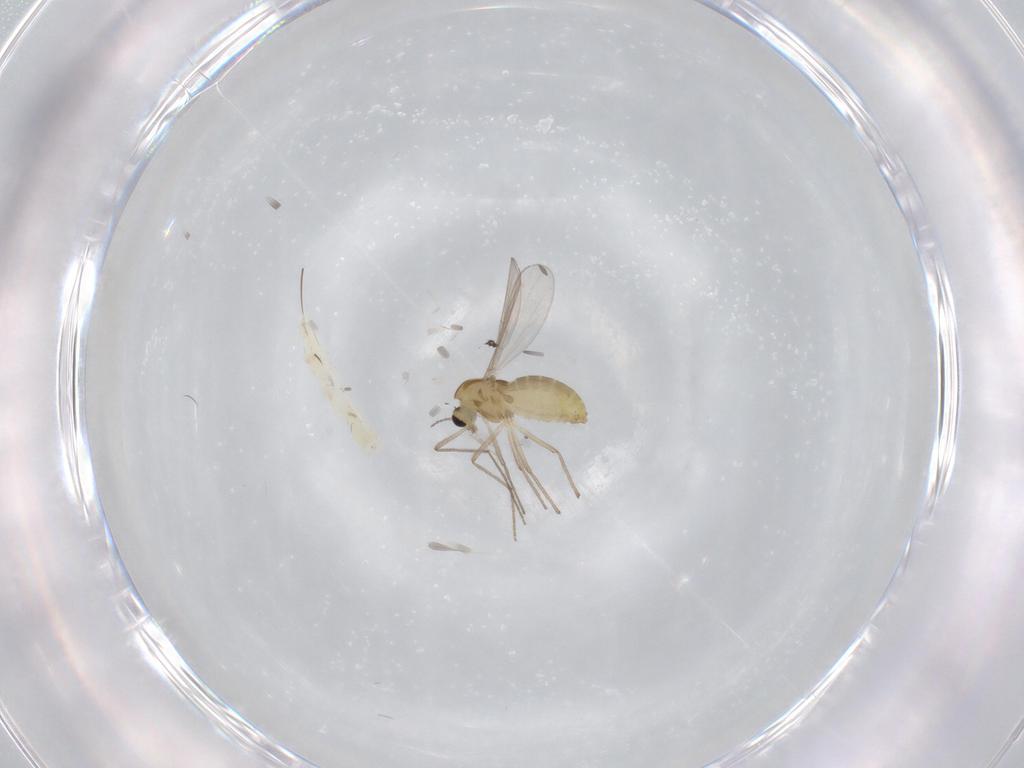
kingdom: Animalia
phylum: Arthropoda
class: Insecta
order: Diptera
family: Chironomidae
